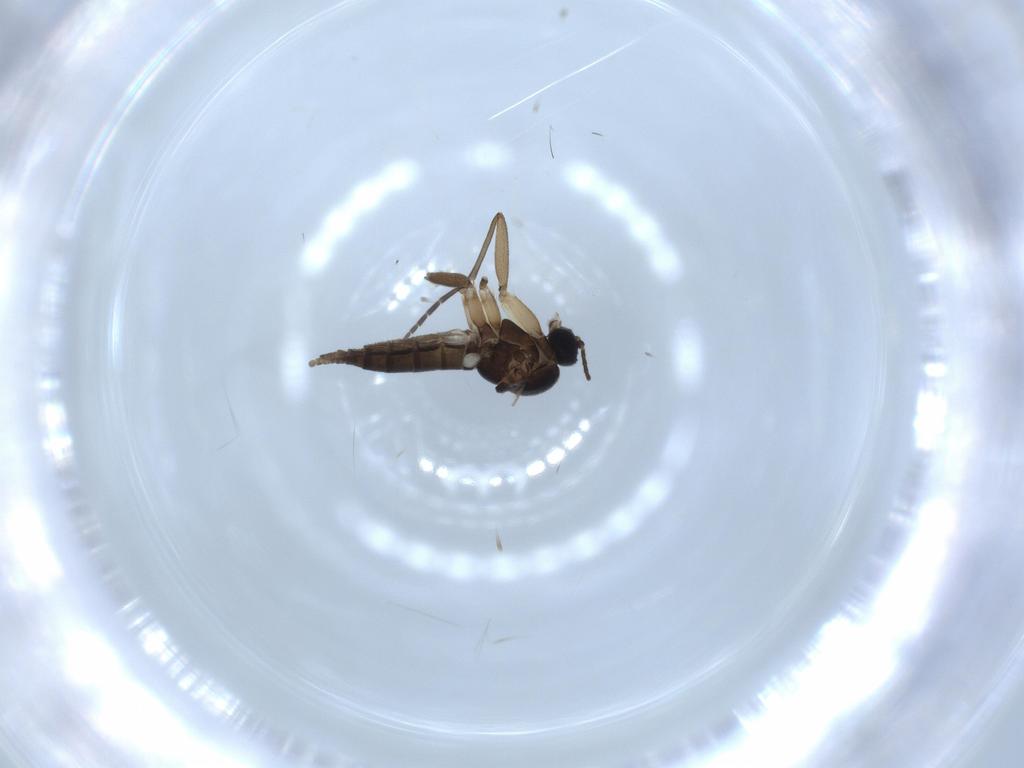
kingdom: Animalia
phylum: Arthropoda
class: Insecta
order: Diptera
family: Sciaridae
